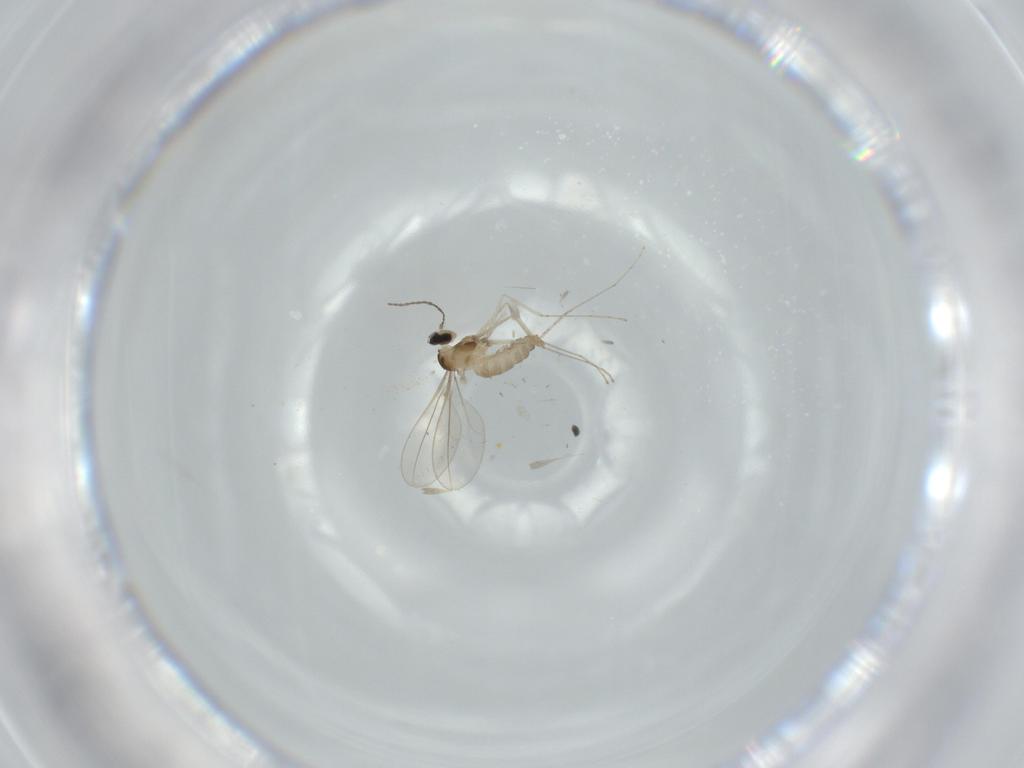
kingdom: Animalia
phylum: Arthropoda
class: Insecta
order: Diptera
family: Cecidomyiidae
